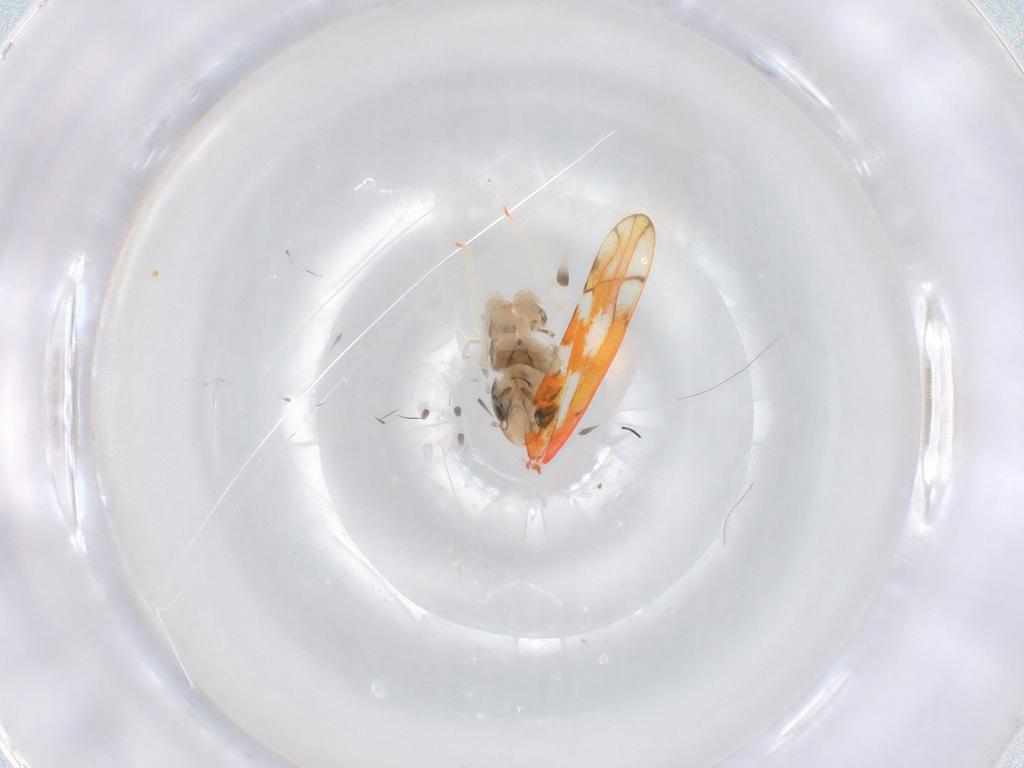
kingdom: Animalia
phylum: Arthropoda
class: Insecta
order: Hemiptera
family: Cicadellidae
